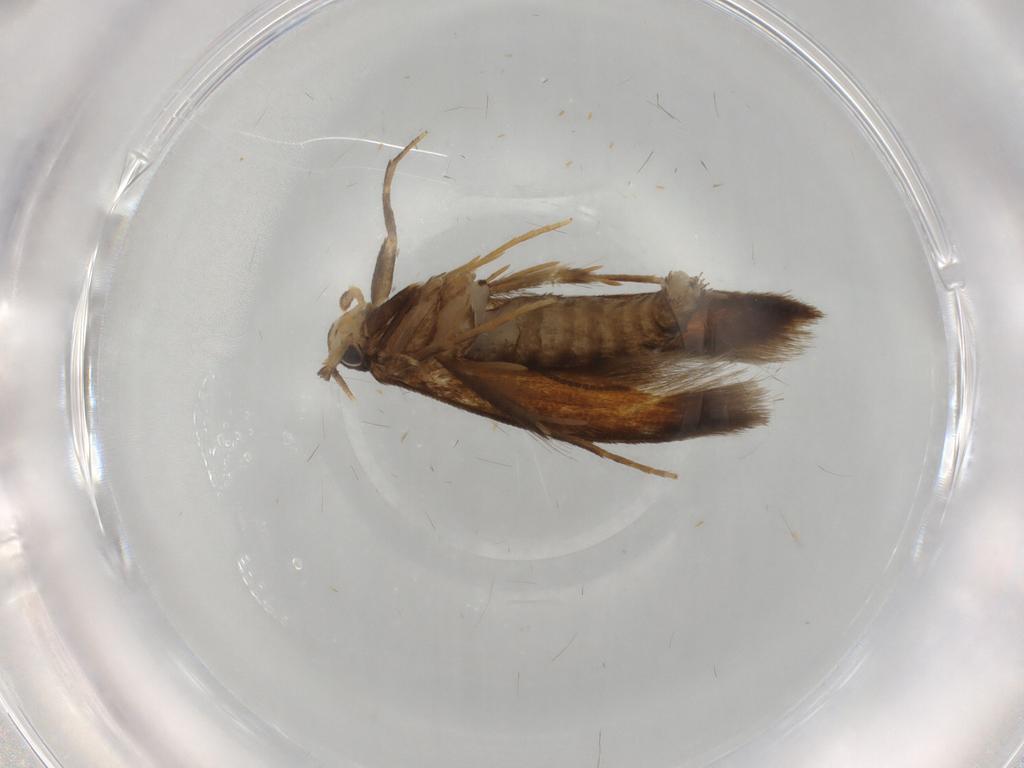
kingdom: Animalia
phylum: Arthropoda
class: Insecta
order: Lepidoptera
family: Tineidae
